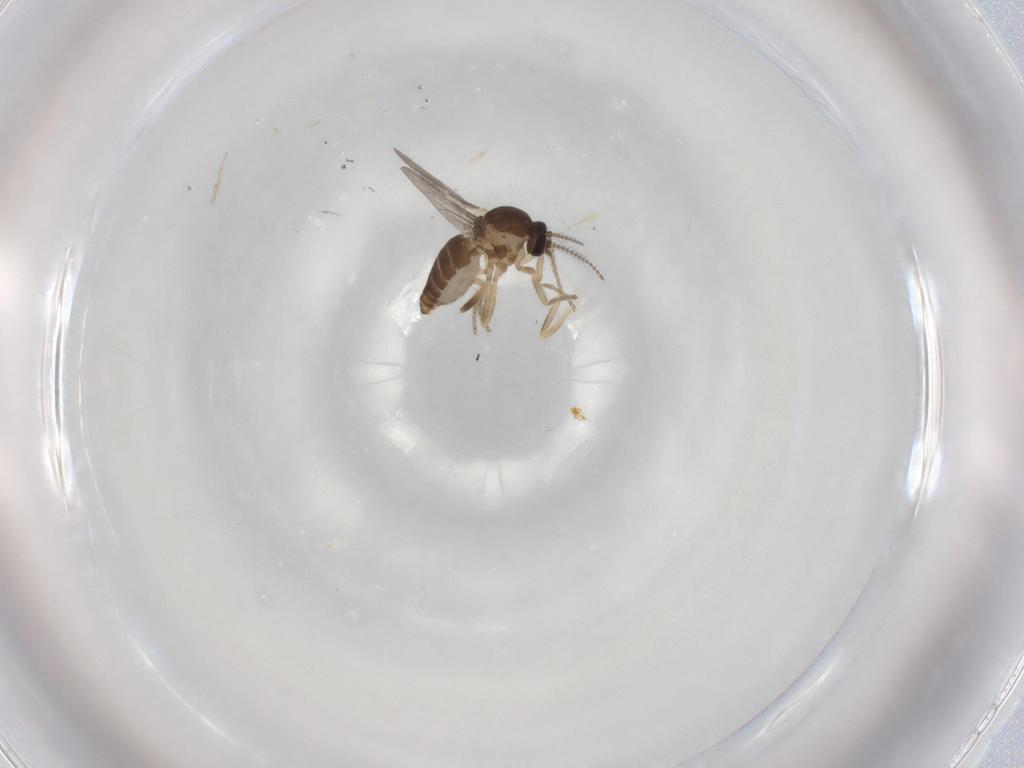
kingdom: Animalia
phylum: Arthropoda
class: Insecta
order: Diptera
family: Ceratopogonidae
